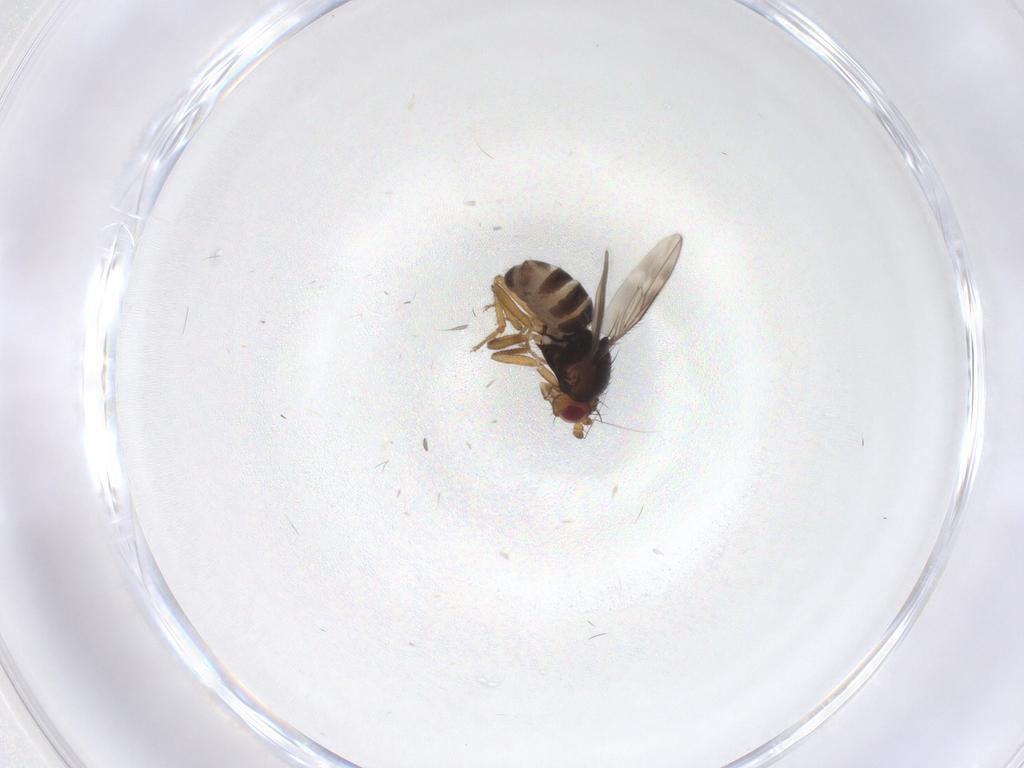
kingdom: Animalia
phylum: Arthropoda
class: Insecta
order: Diptera
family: Sphaeroceridae
